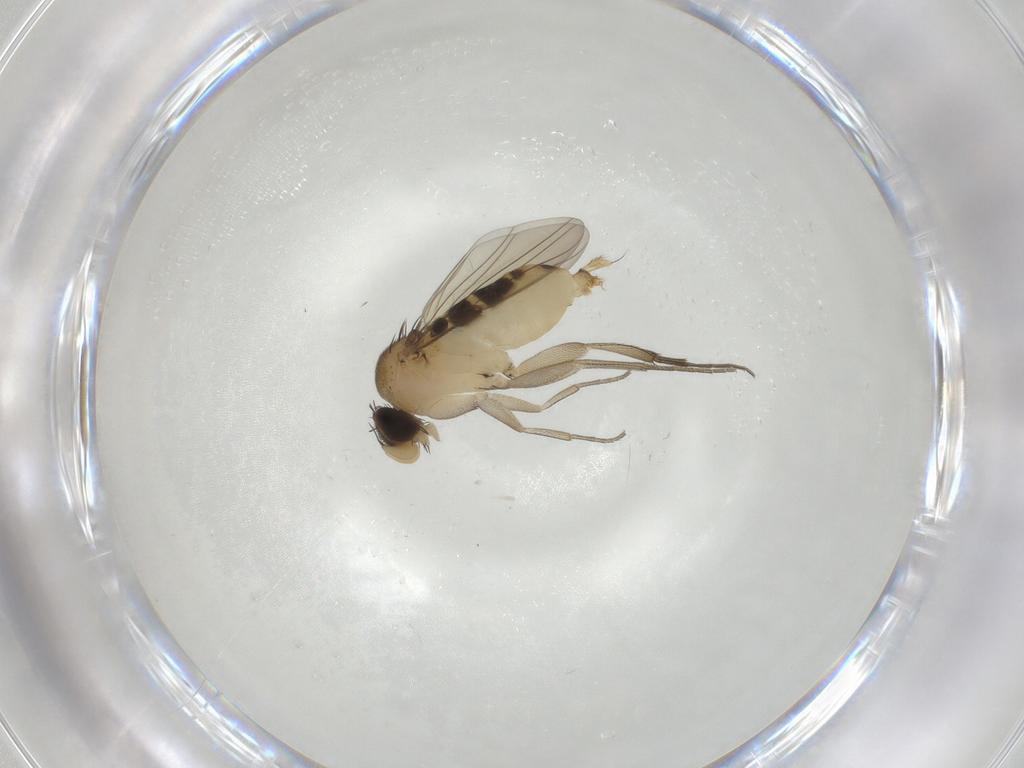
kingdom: Animalia
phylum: Arthropoda
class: Insecta
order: Diptera
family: Phoridae
